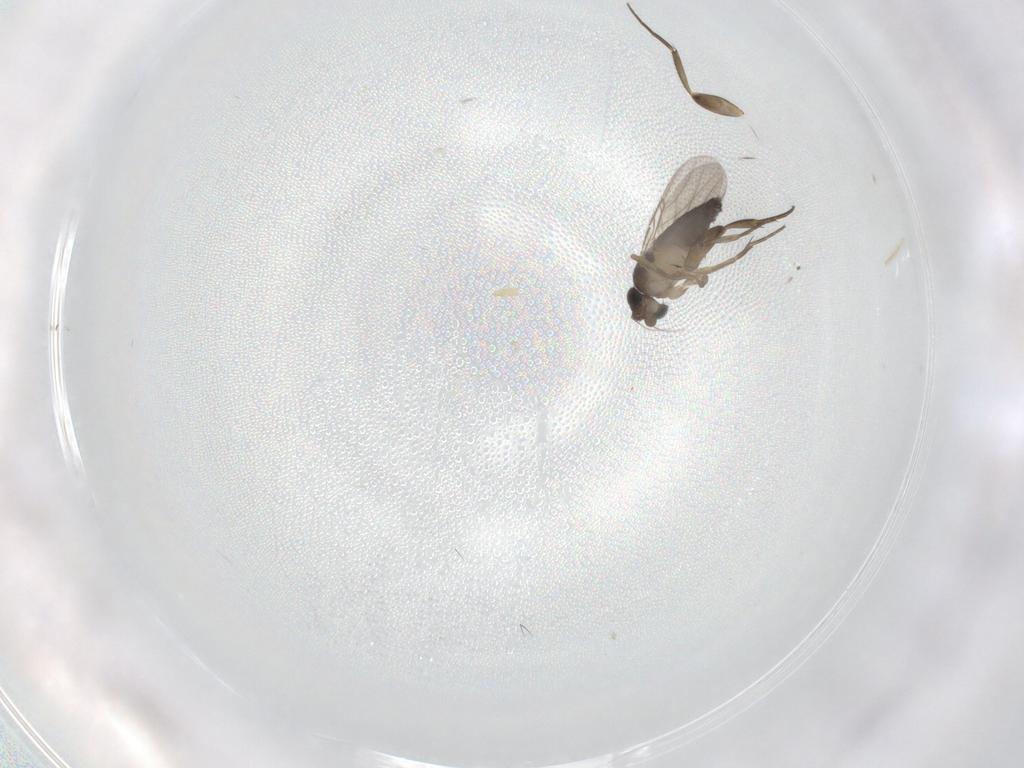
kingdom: Animalia
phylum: Arthropoda
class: Insecta
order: Diptera
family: Phoridae
